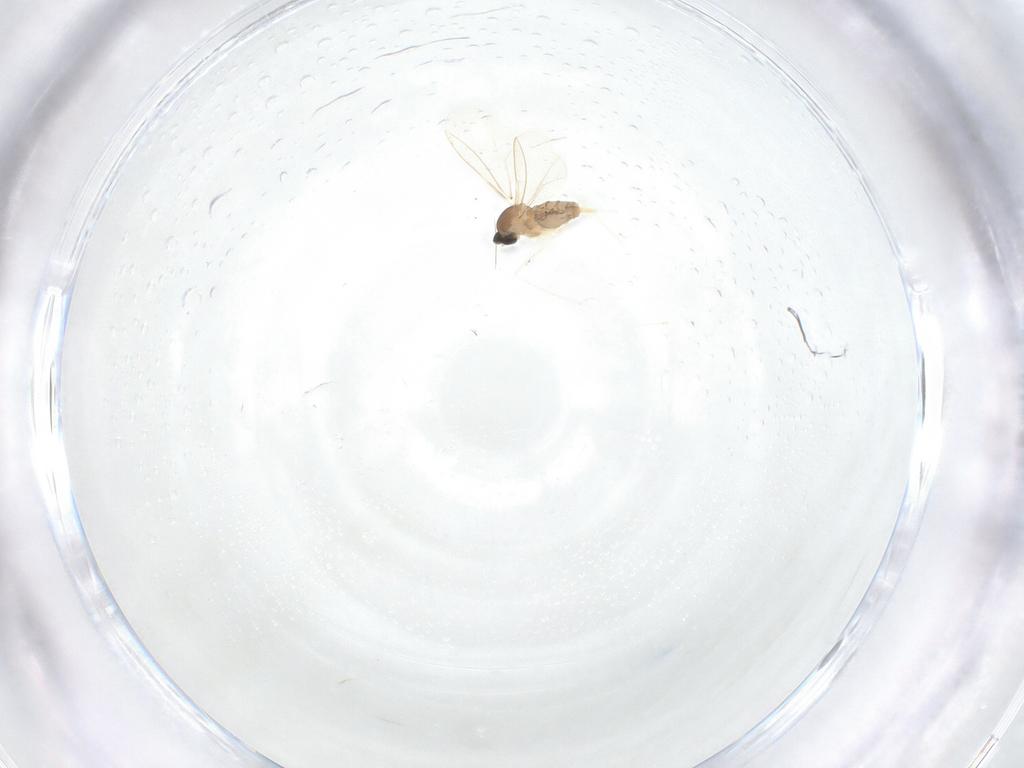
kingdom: Animalia
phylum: Arthropoda
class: Insecta
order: Diptera
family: Cecidomyiidae
